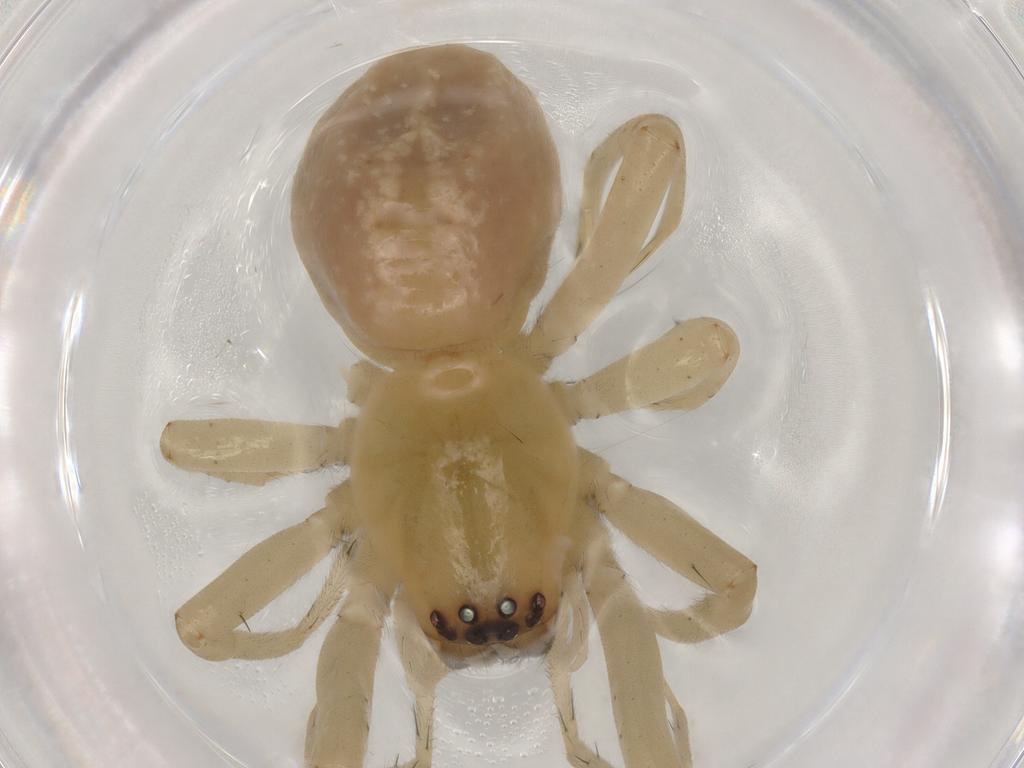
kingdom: Animalia
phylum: Arthropoda
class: Arachnida
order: Araneae
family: Cheiracanthiidae
